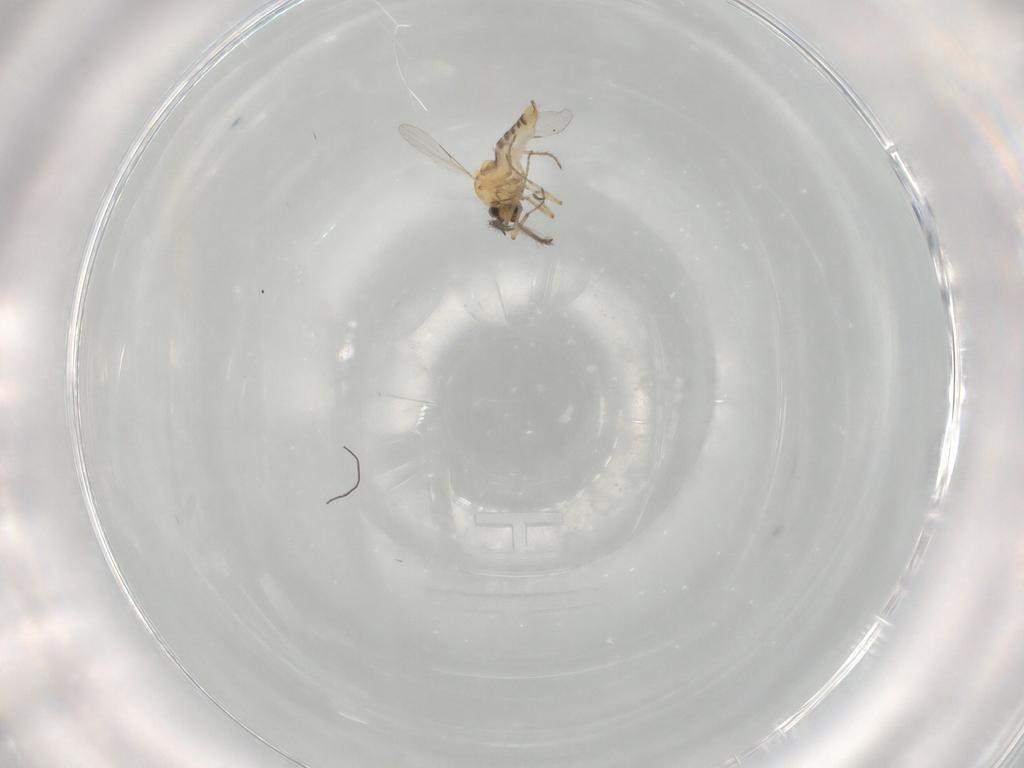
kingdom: Animalia
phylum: Arthropoda
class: Insecta
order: Diptera
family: Ceratopogonidae
